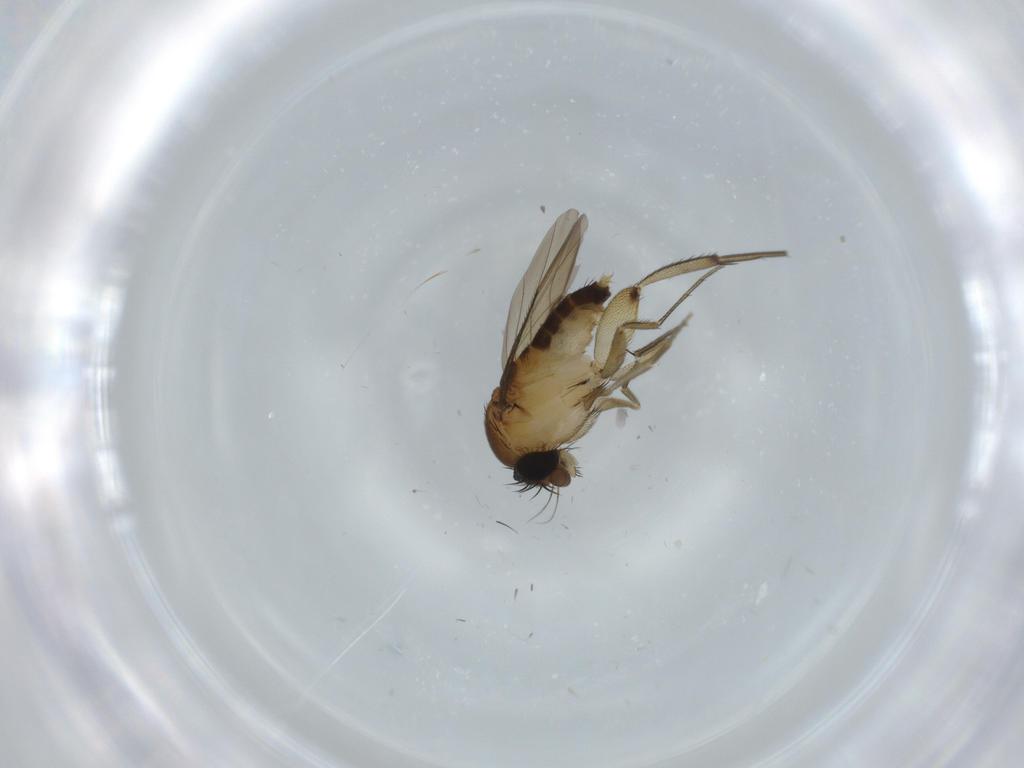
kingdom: Animalia
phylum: Arthropoda
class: Insecta
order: Diptera
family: Phoridae
